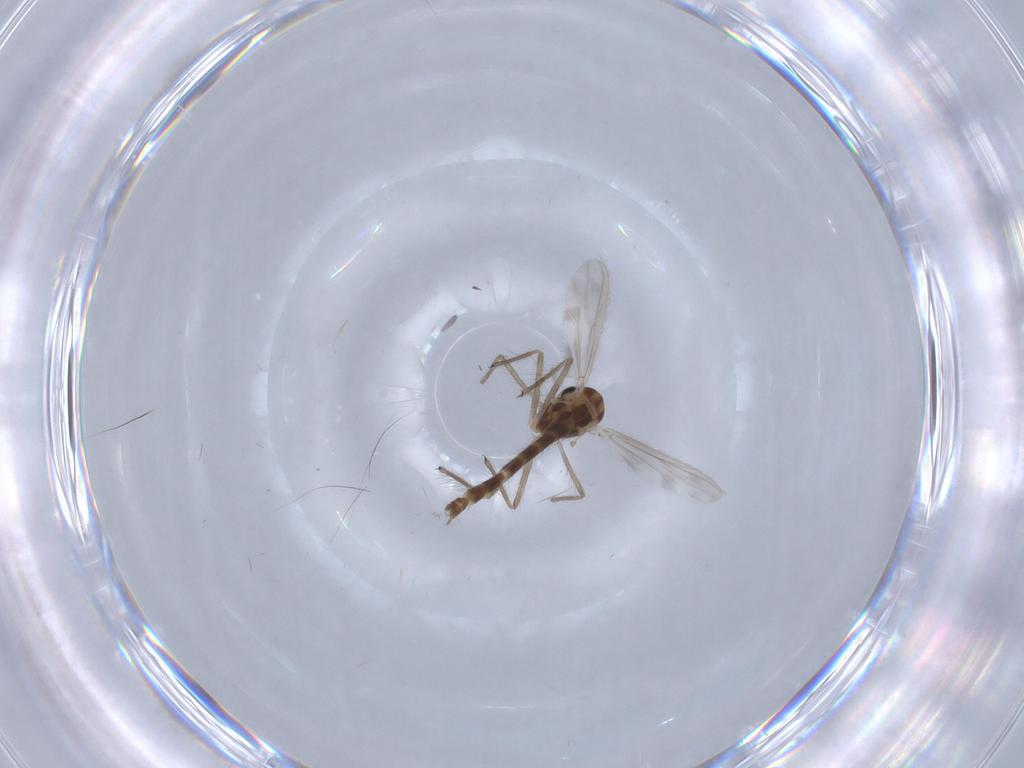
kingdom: Animalia
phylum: Arthropoda
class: Insecta
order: Diptera
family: Chironomidae
